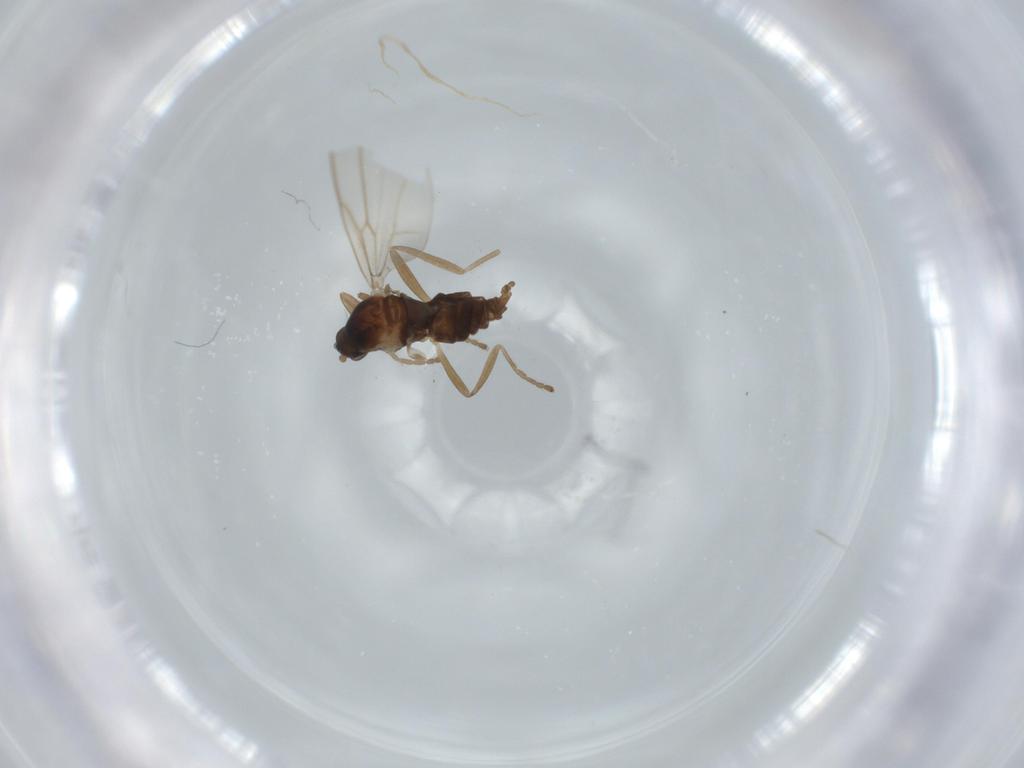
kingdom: Animalia
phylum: Arthropoda
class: Insecta
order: Diptera
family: Cecidomyiidae
